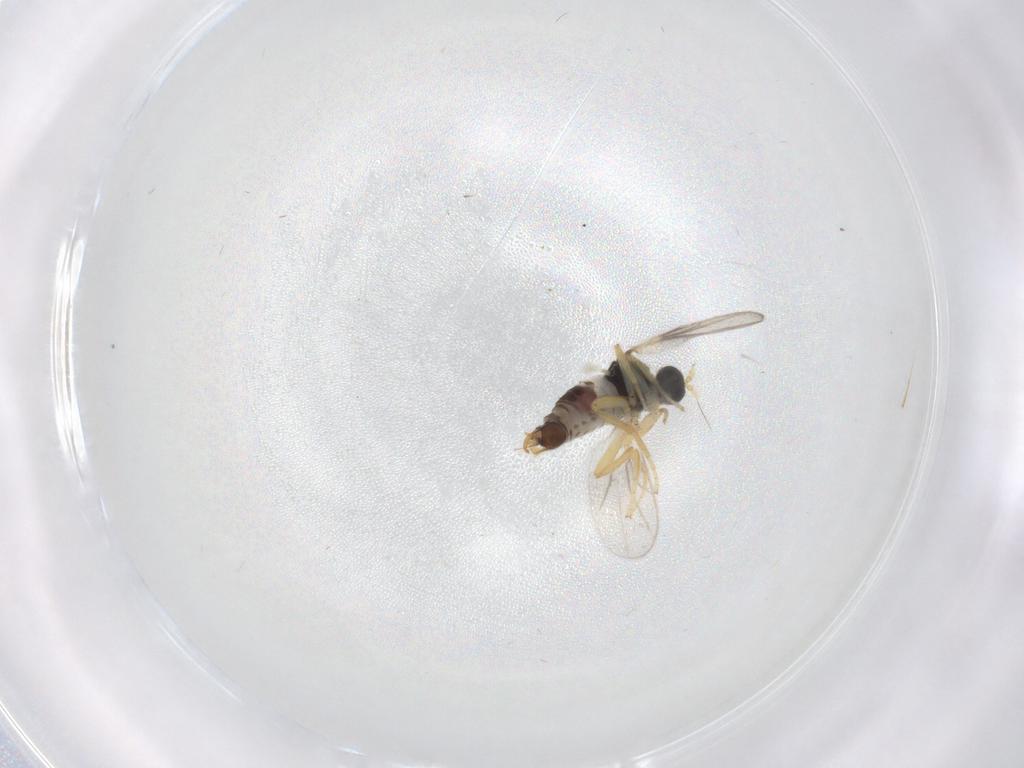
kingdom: Animalia
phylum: Arthropoda
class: Insecta
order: Diptera
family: Hybotidae
